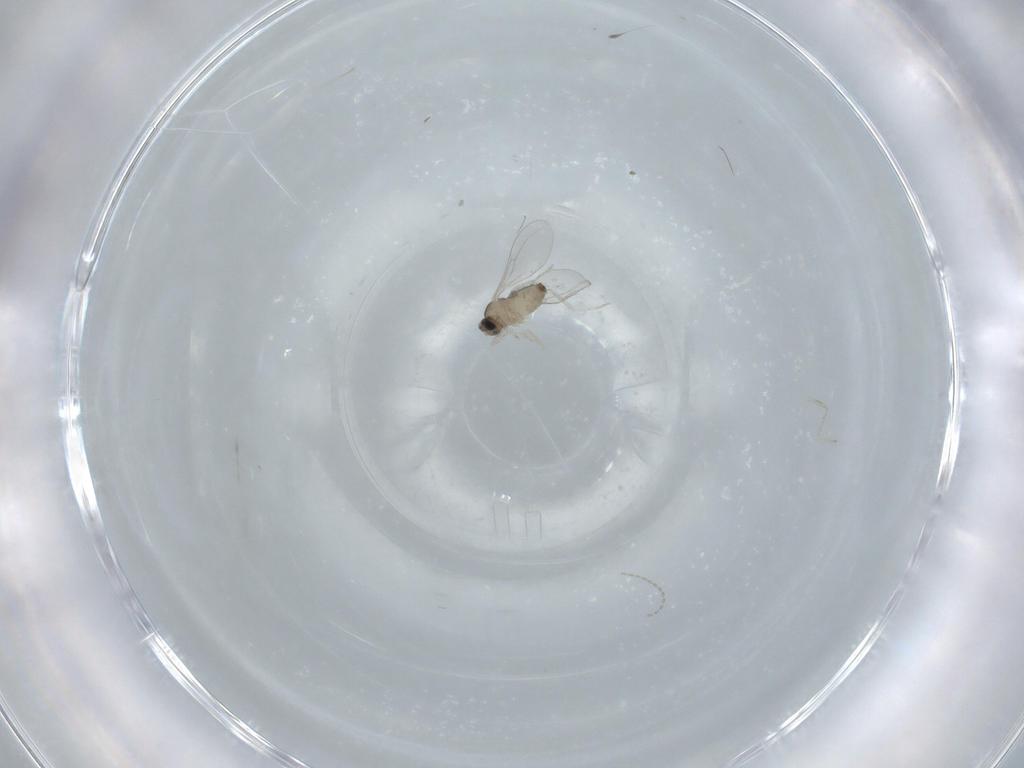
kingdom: Animalia
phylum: Arthropoda
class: Insecta
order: Diptera
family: Cecidomyiidae
